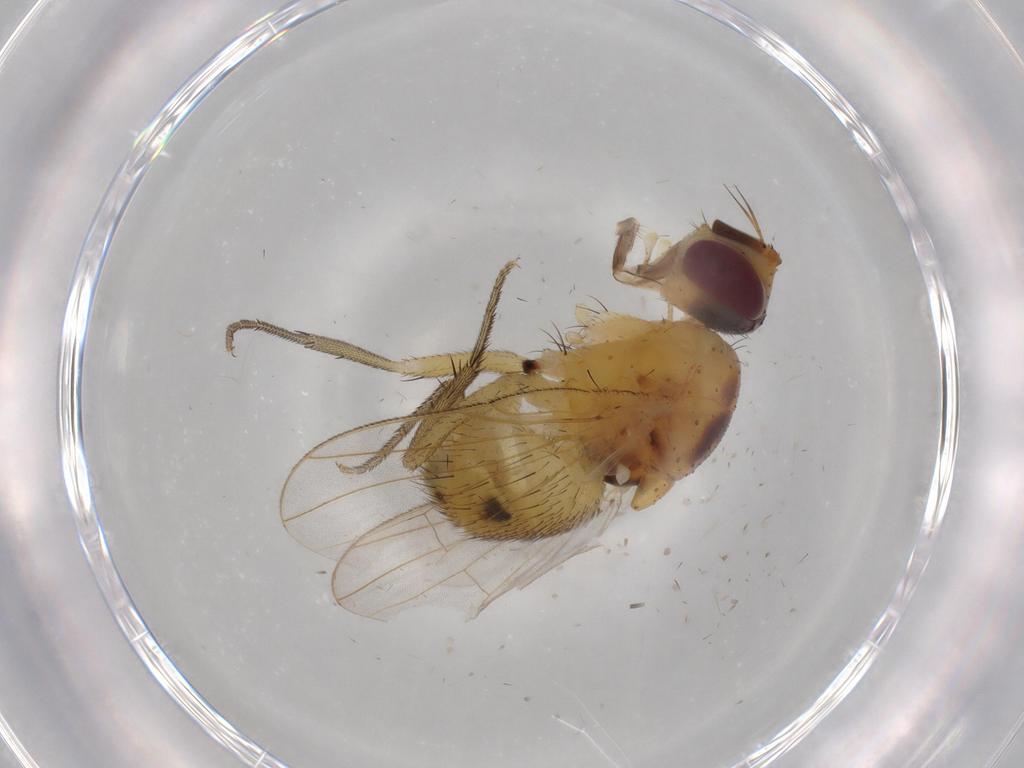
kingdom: Animalia
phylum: Arthropoda
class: Insecta
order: Diptera
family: Muscidae
